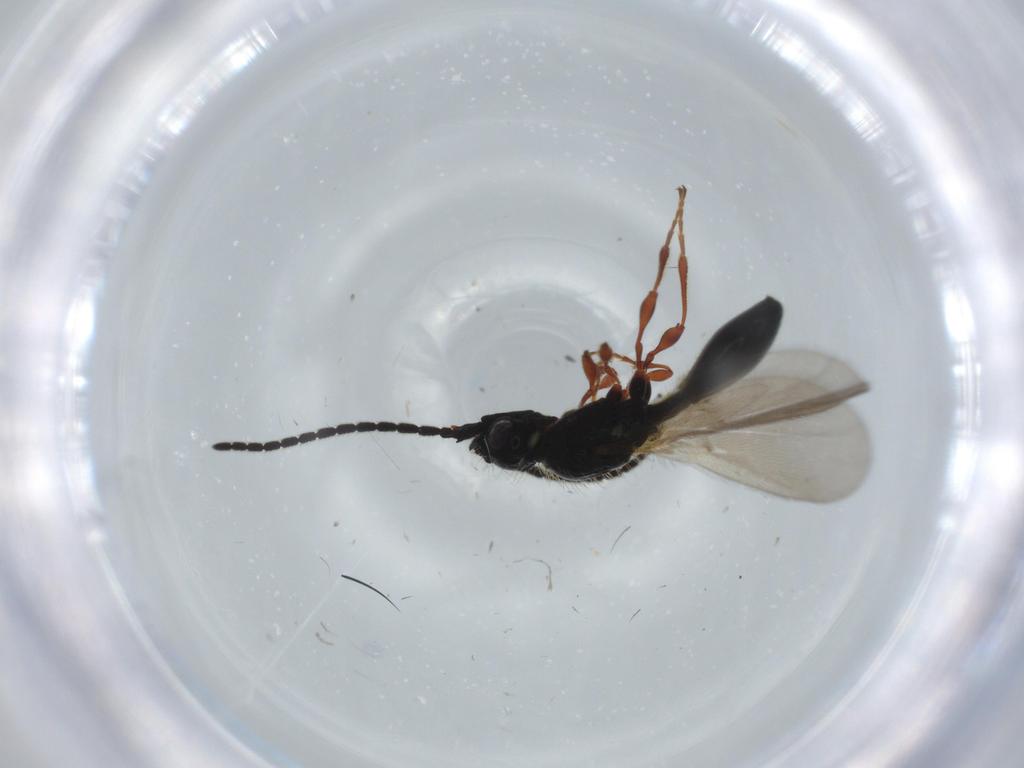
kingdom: Animalia
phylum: Arthropoda
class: Insecta
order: Hymenoptera
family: Diapriidae
